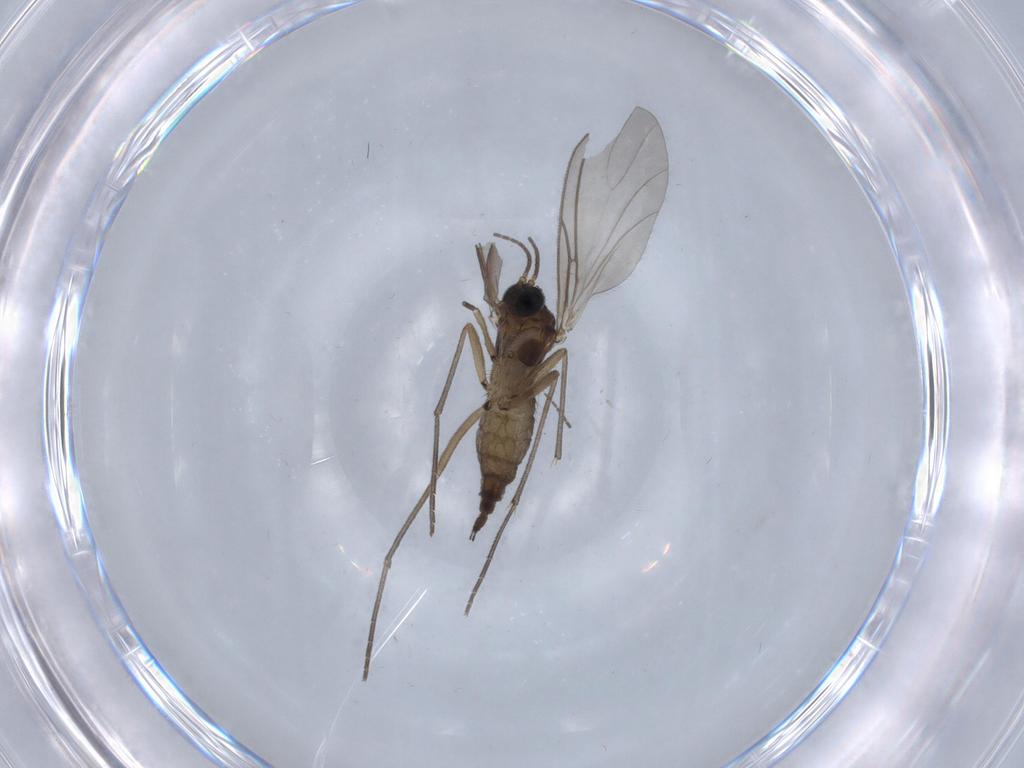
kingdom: Animalia
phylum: Arthropoda
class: Insecta
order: Diptera
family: Sciaridae
